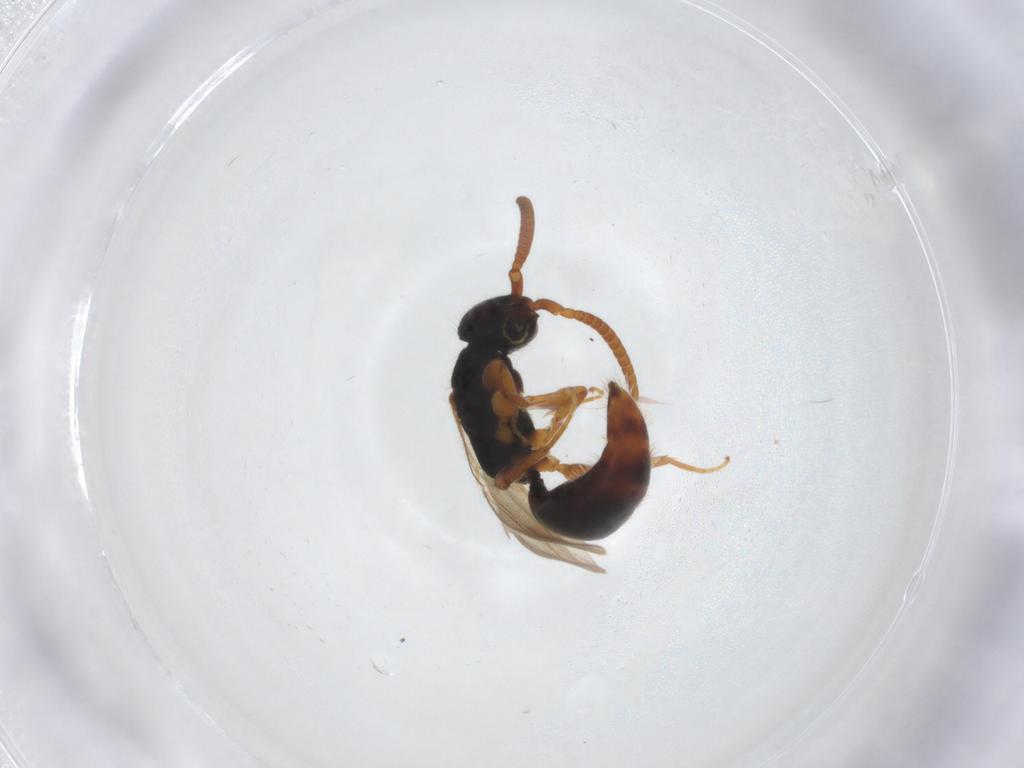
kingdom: Animalia
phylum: Arthropoda
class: Insecta
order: Hymenoptera
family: Bethylidae
